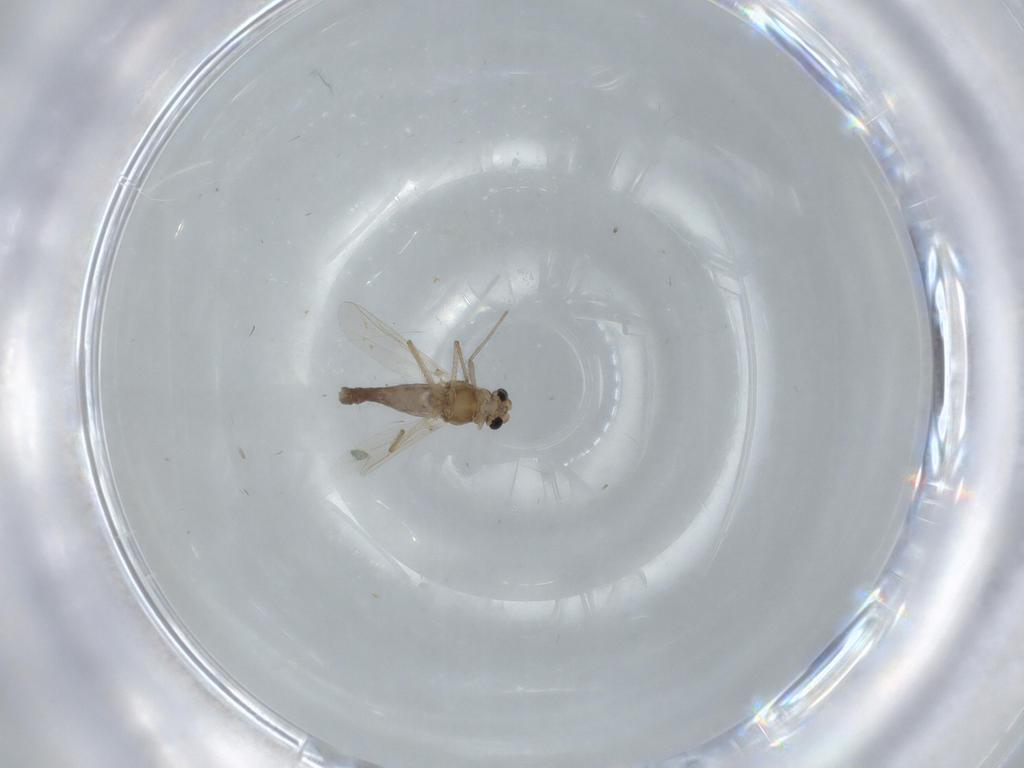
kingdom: Animalia
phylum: Arthropoda
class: Insecta
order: Diptera
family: Chironomidae
